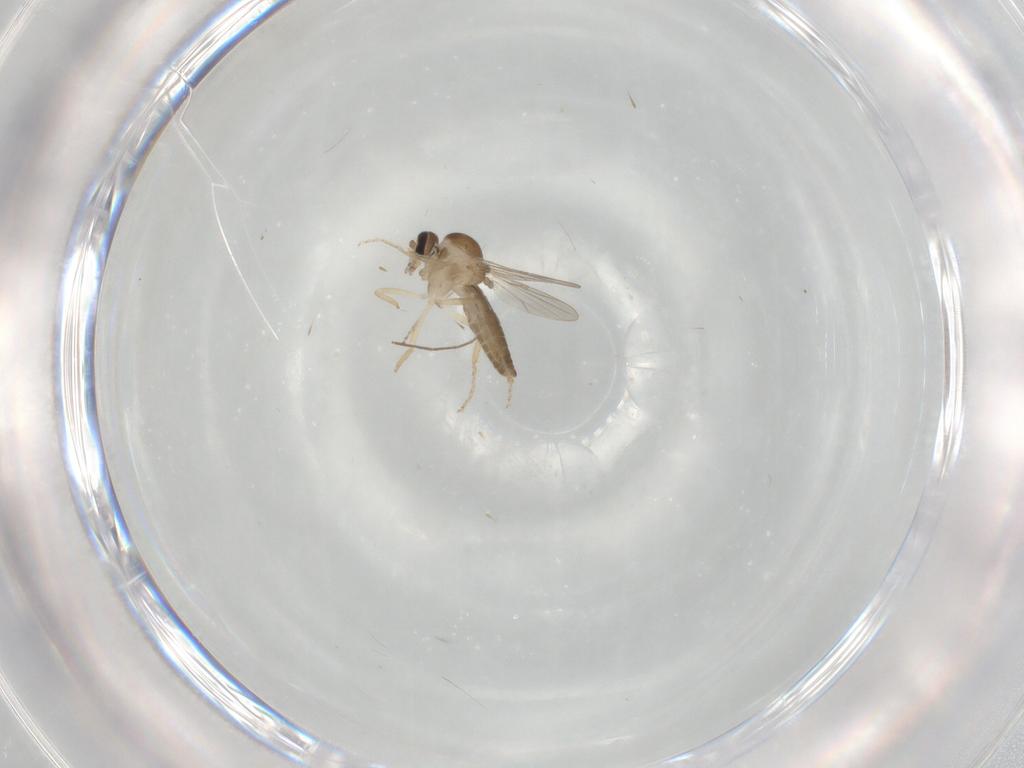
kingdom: Animalia
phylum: Arthropoda
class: Insecta
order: Diptera
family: Ceratopogonidae
